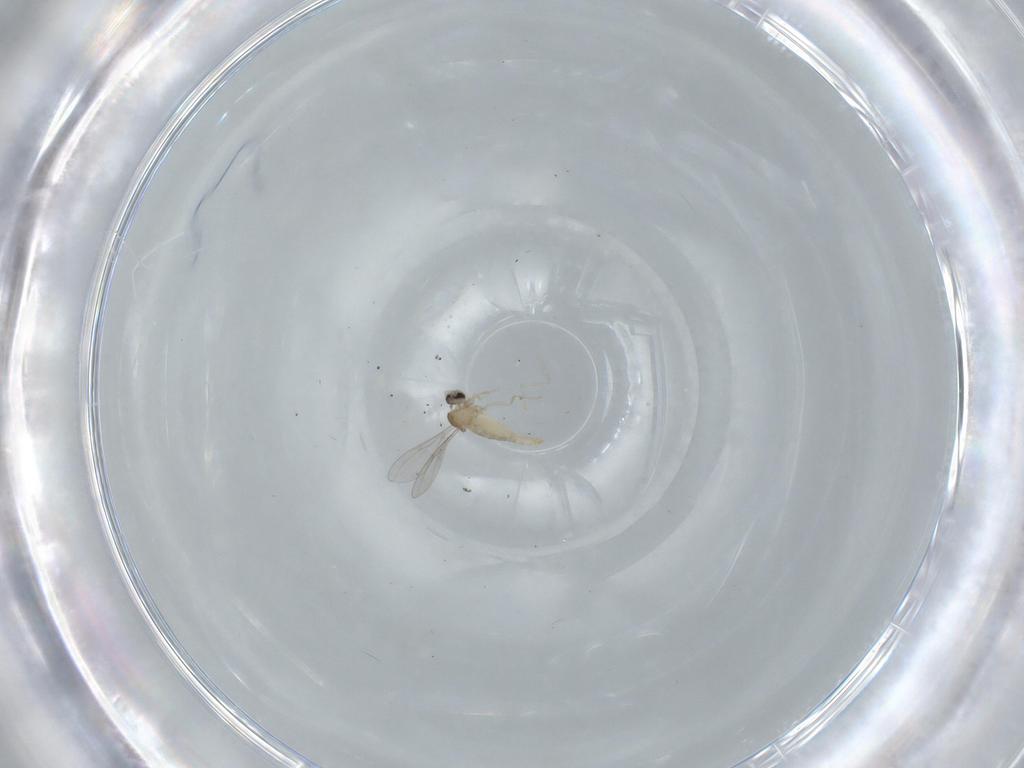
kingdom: Animalia
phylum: Arthropoda
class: Insecta
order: Diptera
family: Cecidomyiidae
